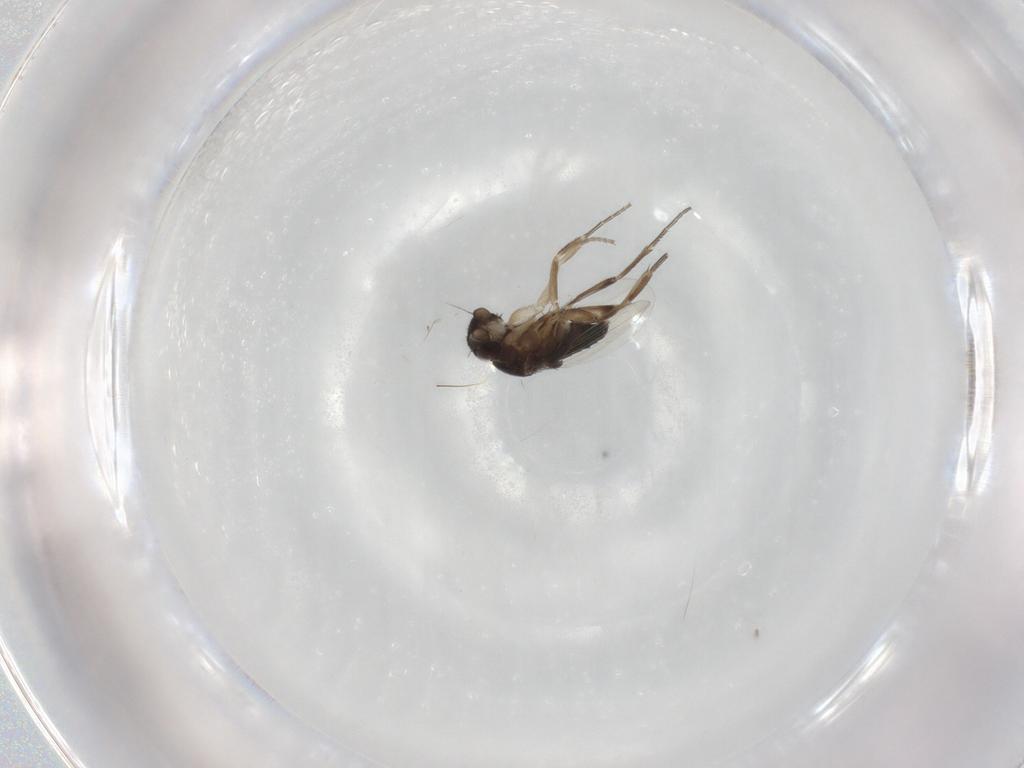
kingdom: Animalia
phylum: Arthropoda
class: Insecta
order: Diptera
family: Phoridae
